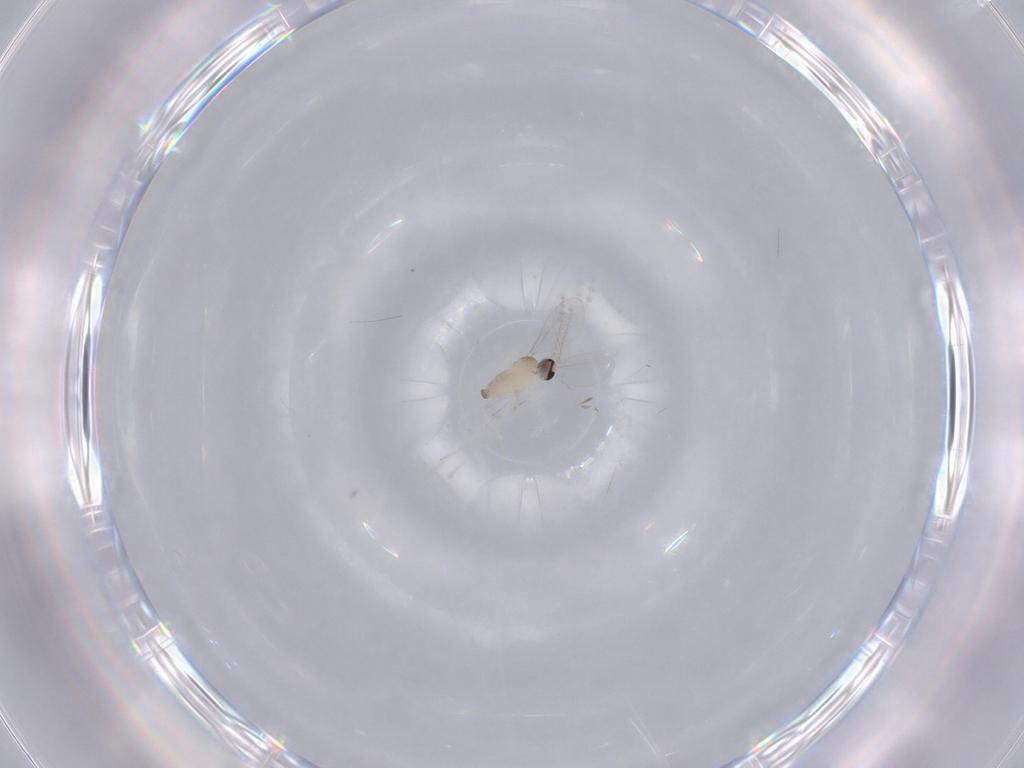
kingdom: Animalia
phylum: Arthropoda
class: Insecta
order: Diptera
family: Cecidomyiidae
